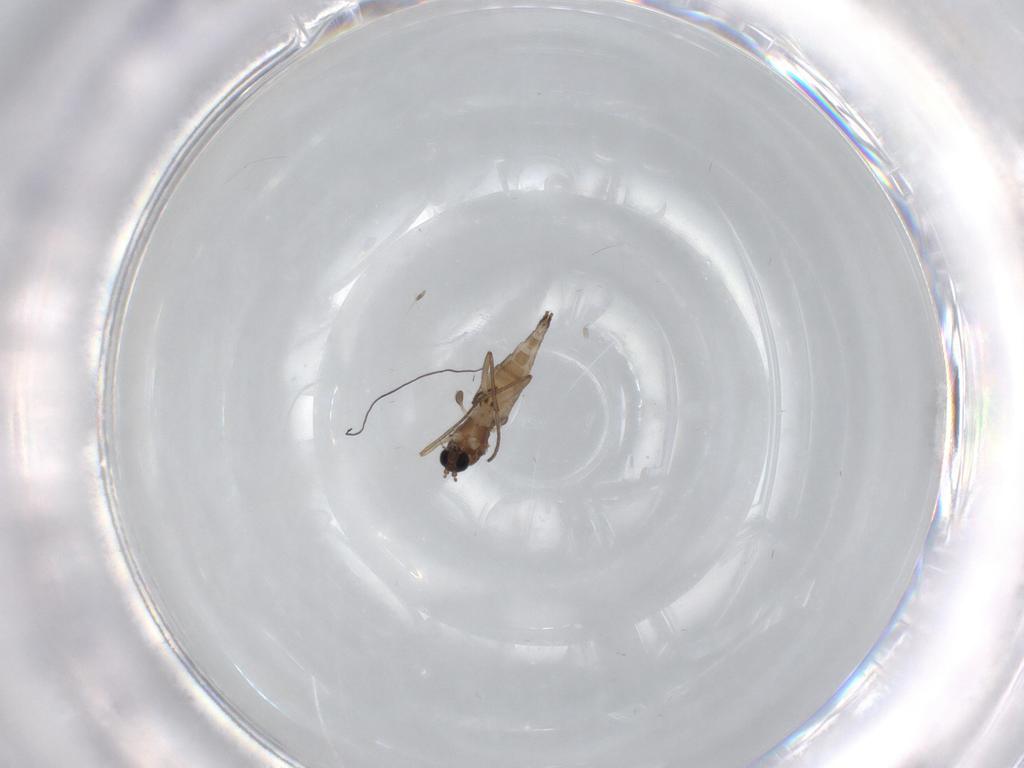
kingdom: Animalia
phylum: Arthropoda
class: Insecta
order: Diptera
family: Sciaridae
